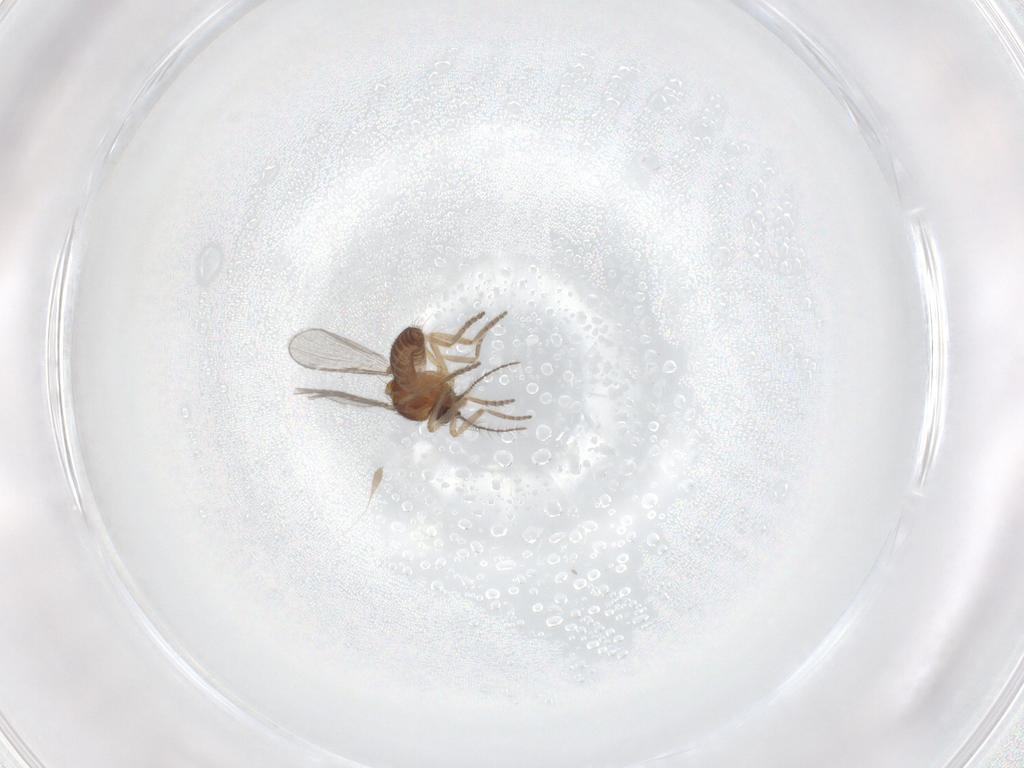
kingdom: Animalia
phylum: Arthropoda
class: Insecta
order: Diptera
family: Ceratopogonidae
